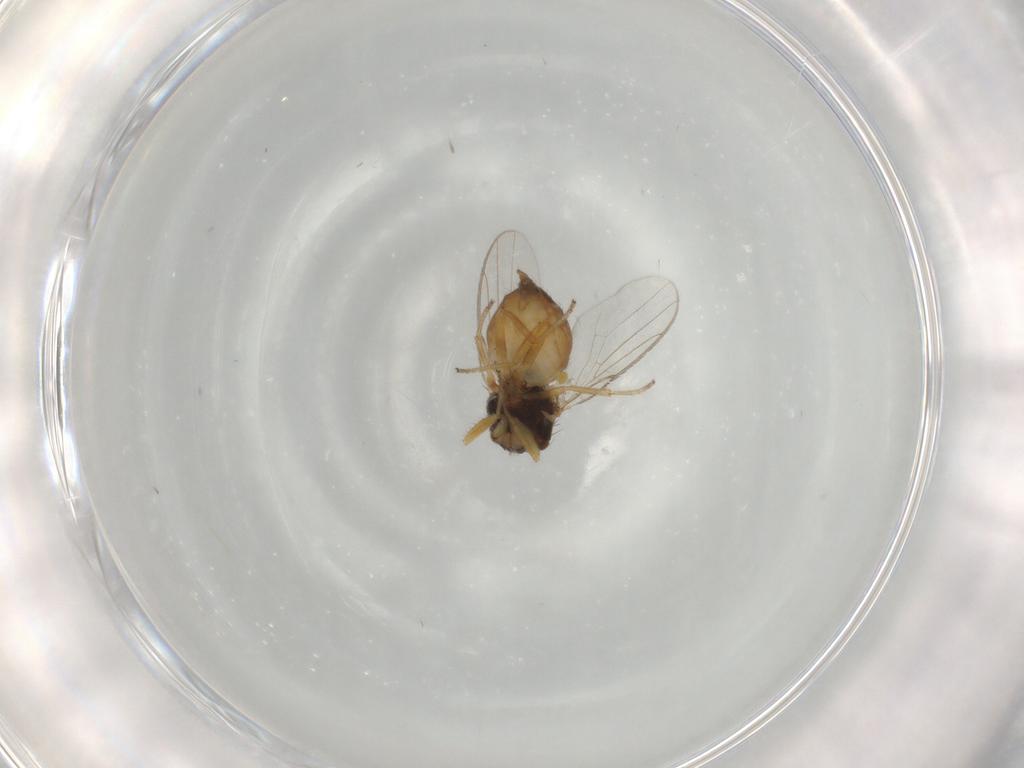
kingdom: Animalia
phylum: Arthropoda
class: Insecta
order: Diptera
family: Chloropidae
